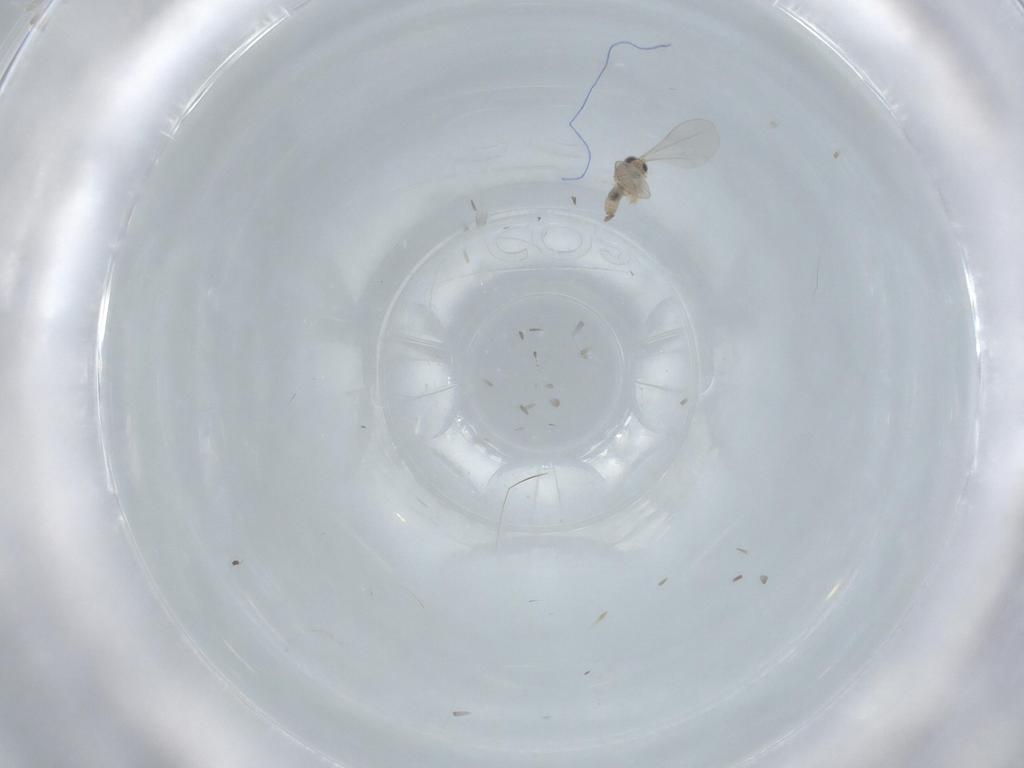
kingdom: Animalia
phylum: Arthropoda
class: Insecta
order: Diptera
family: Cecidomyiidae
